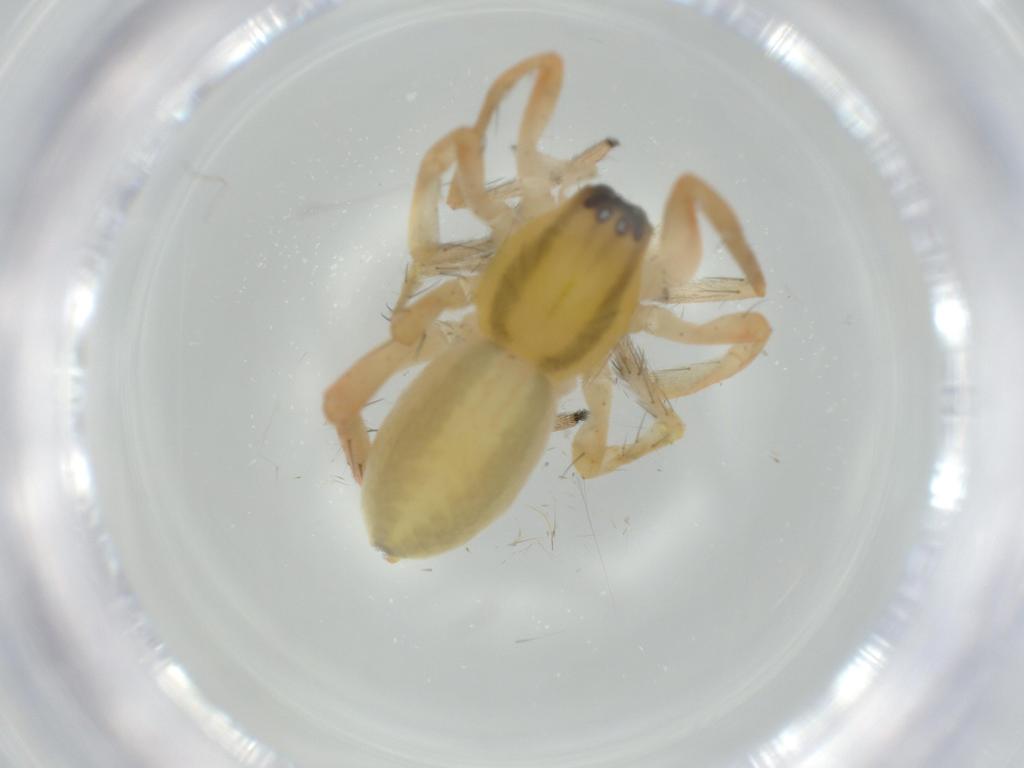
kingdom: Animalia
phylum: Arthropoda
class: Arachnida
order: Araneae
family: Anyphaenidae
